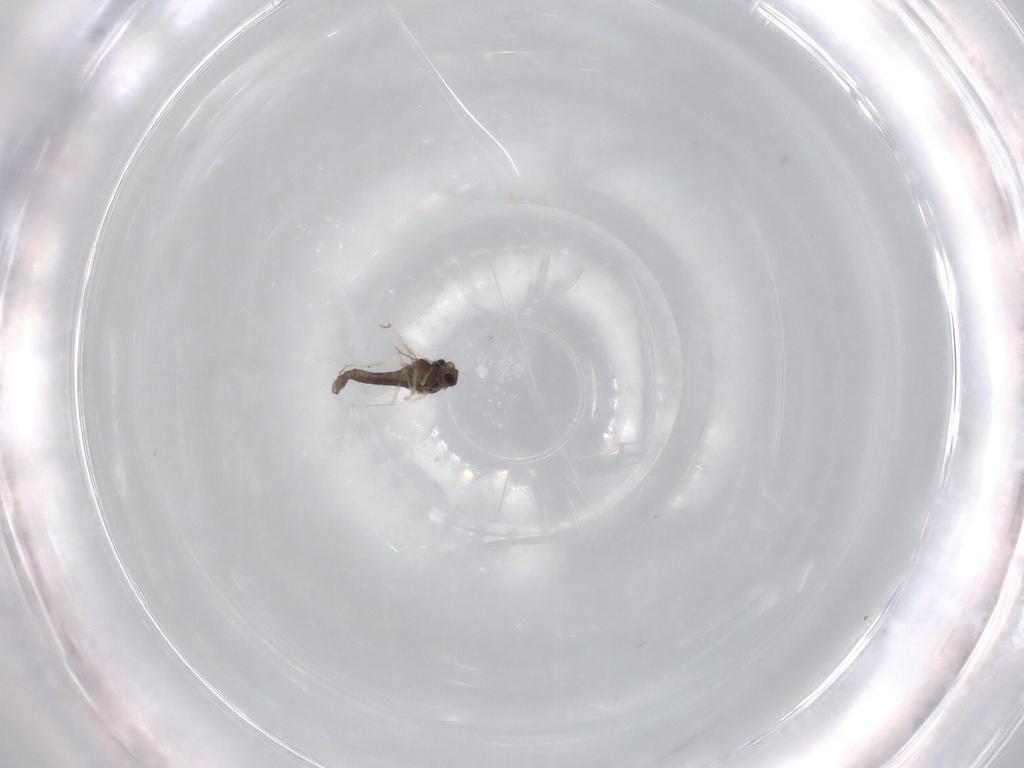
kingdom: Animalia
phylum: Arthropoda
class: Insecta
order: Diptera
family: Chironomidae
